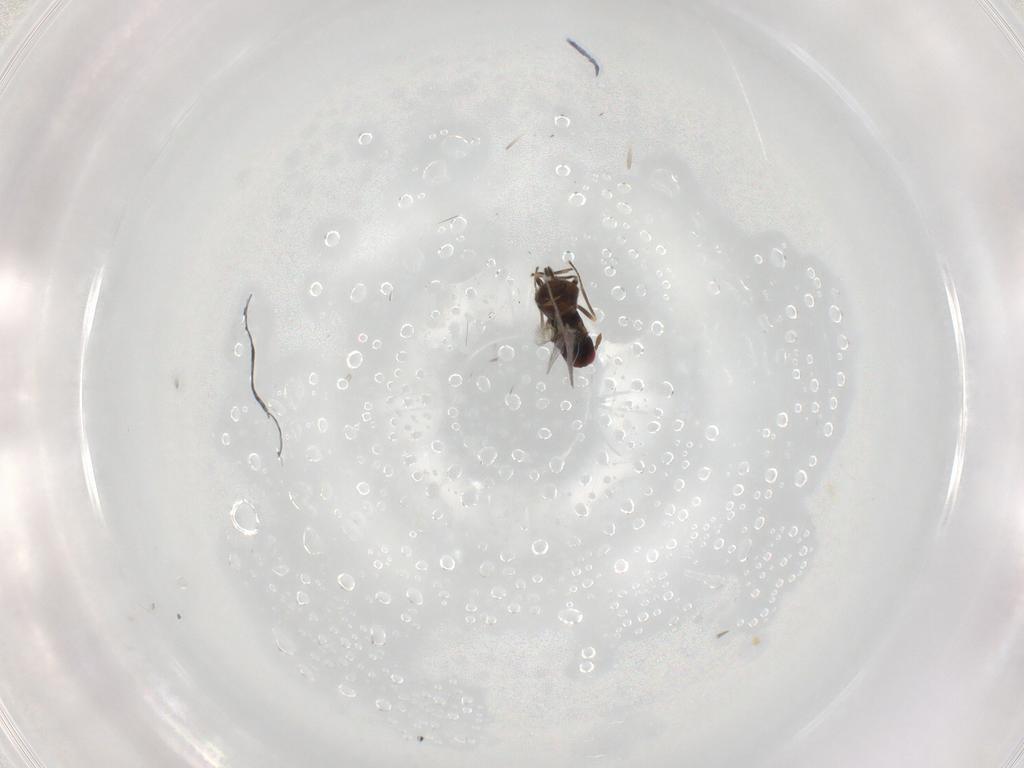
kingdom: Animalia
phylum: Arthropoda
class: Insecta
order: Hymenoptera
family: Eulophidae
